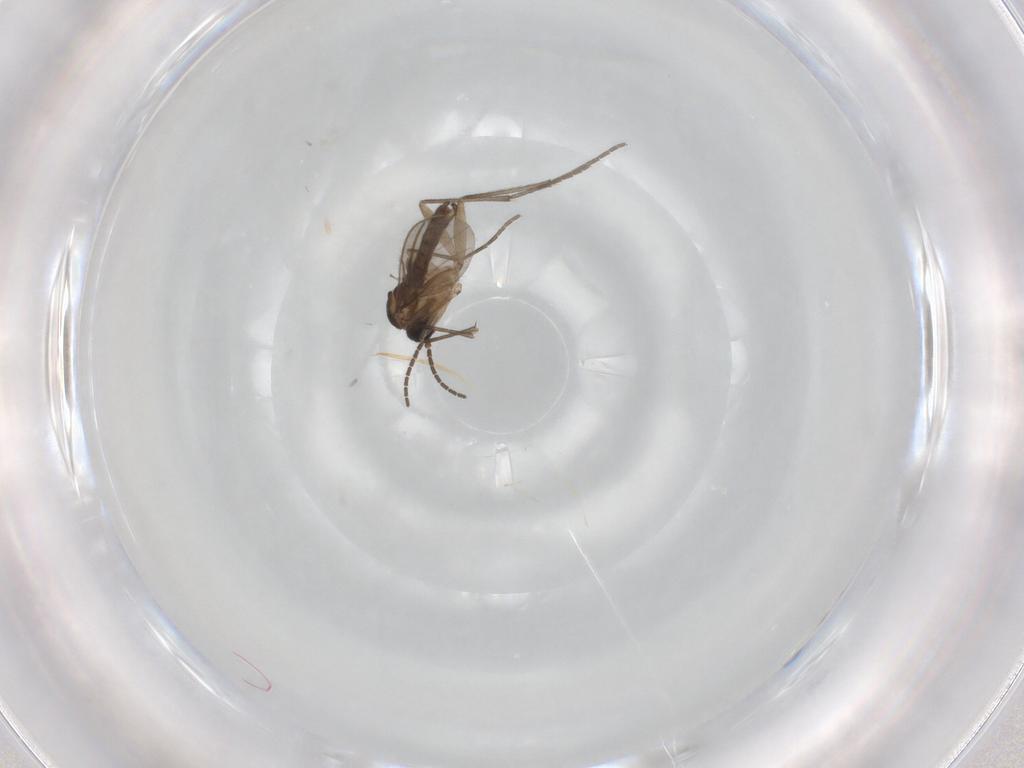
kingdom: Animalia
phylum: Arthropoda
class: Insecta
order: Diptera
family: Sciaridae
